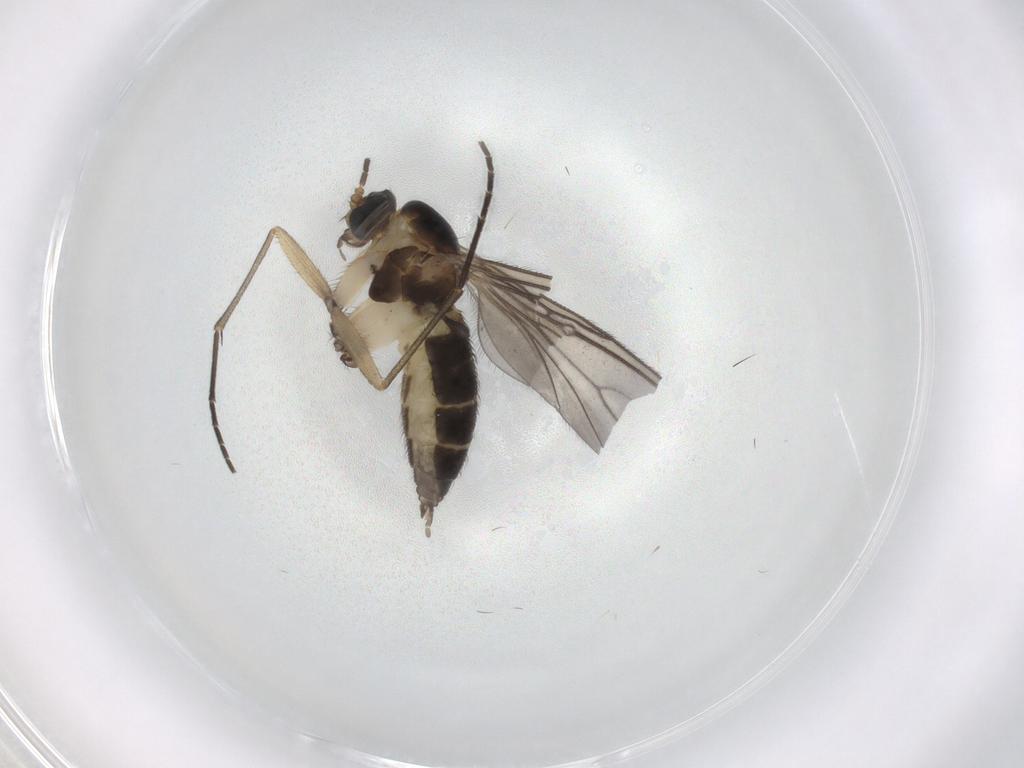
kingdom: Animalia
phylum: Arthropoda
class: Insecta
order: Diptera
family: Sciaridae
